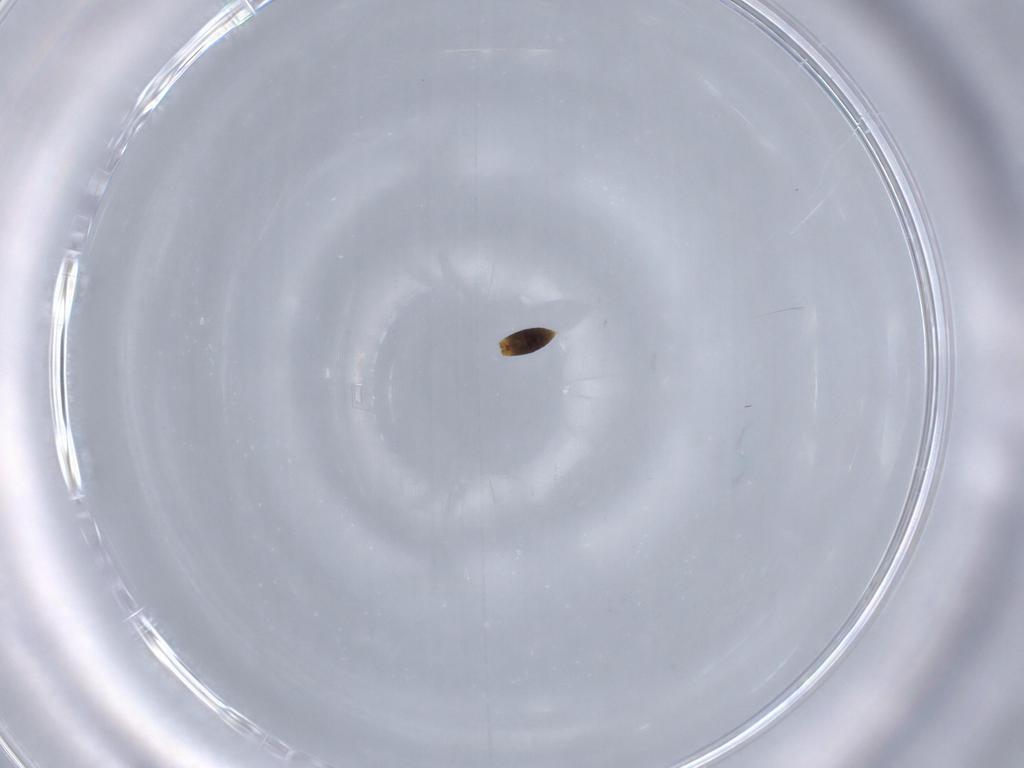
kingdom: Animalia
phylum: Arthropoda
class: Insecta
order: Hymenoptera
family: Platygastridae
